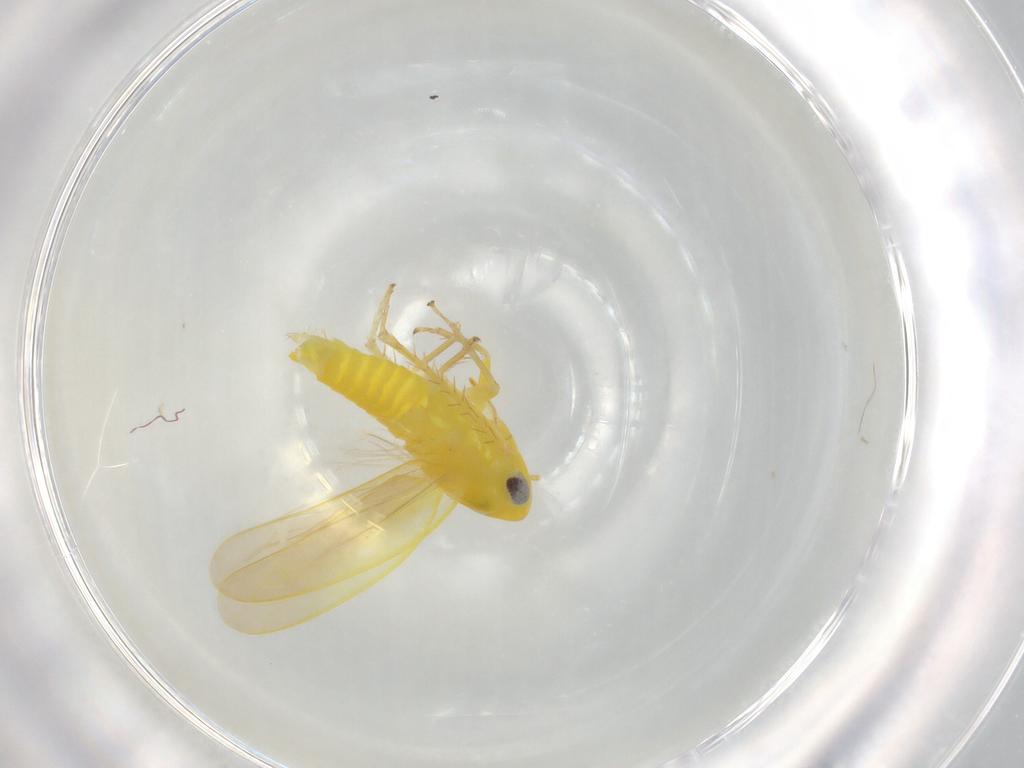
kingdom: Animalia
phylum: Arthropoda
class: Insecta
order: Hemiptera
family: Cicadellidae
